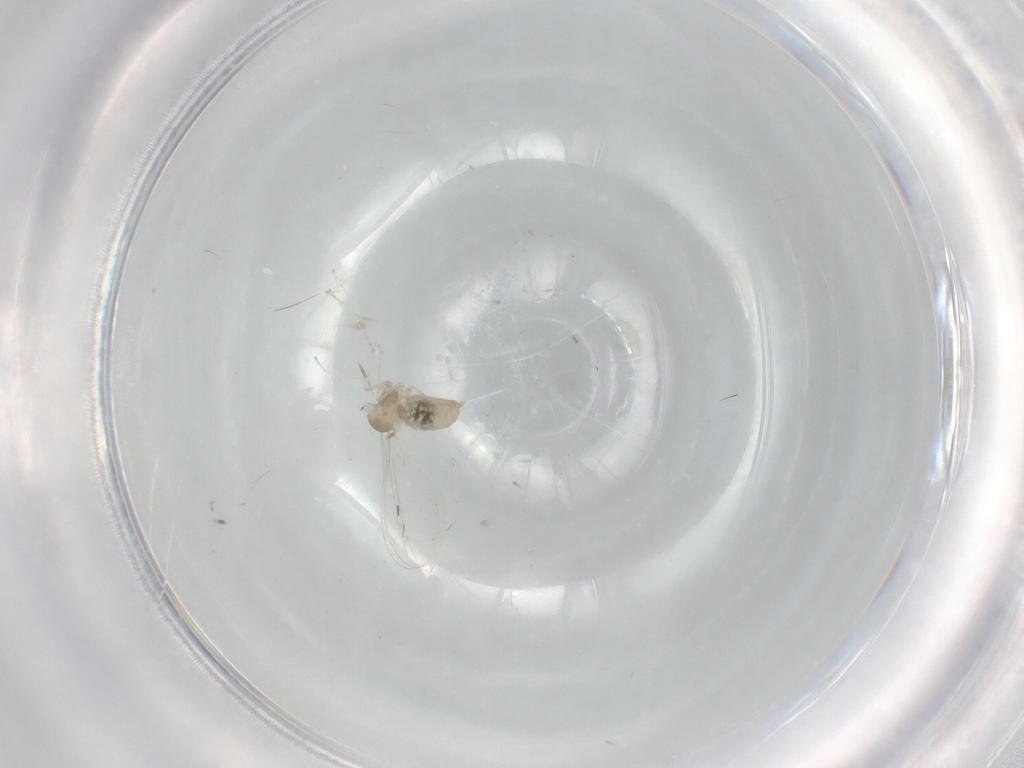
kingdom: Animalia
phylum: Arthropoda
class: Insecta
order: Diptera
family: Cecidomyiidae
